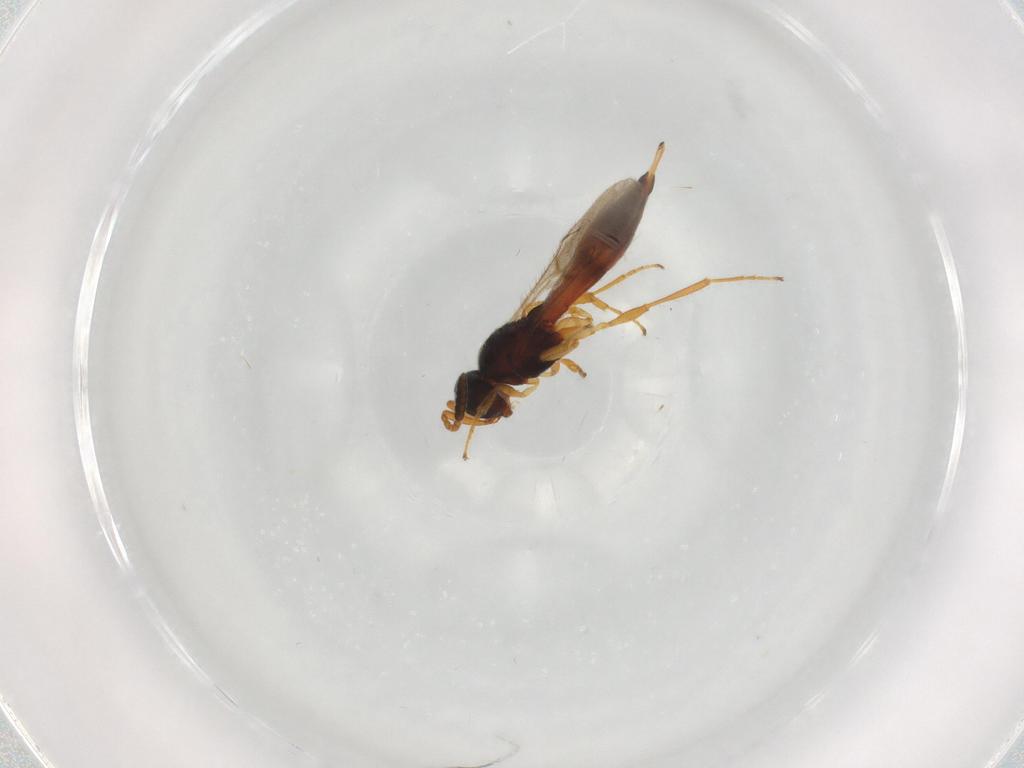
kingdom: Animalia
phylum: Arthropoda
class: Insecta
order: Hymenoptera
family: Scelionidae
